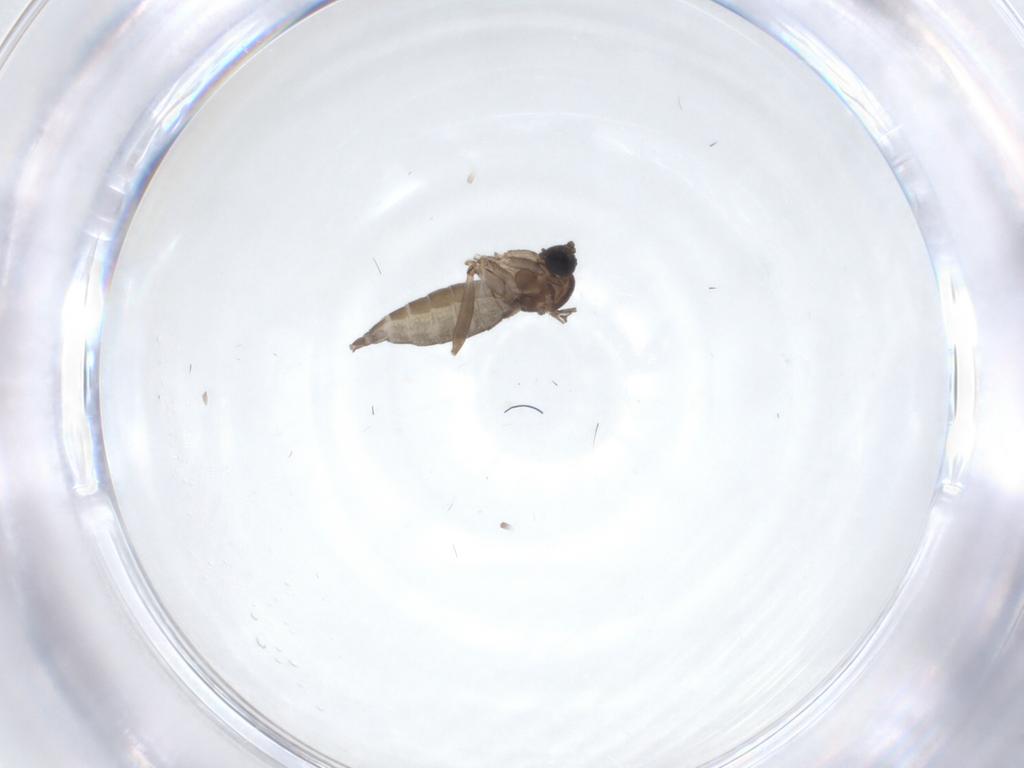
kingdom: Animalia
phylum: Arthropoda
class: Insecta
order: Diptera
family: Sciaridae
